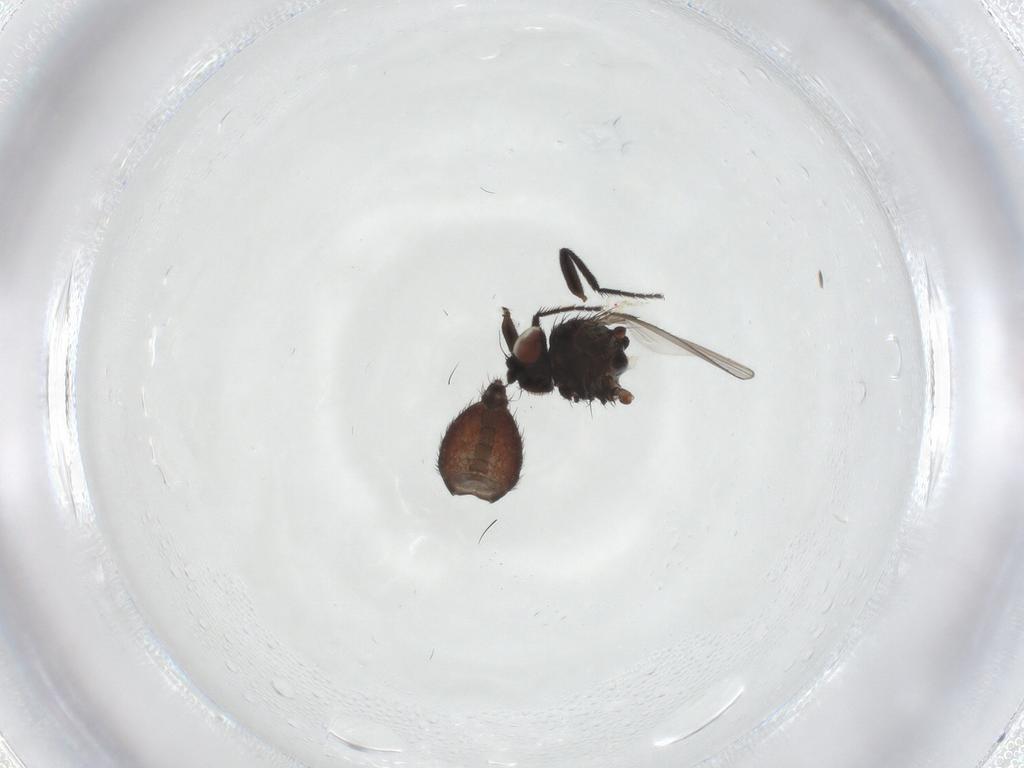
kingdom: Animalia
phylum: Arthropoda
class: Insecta
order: Diptera
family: Milichiidae
